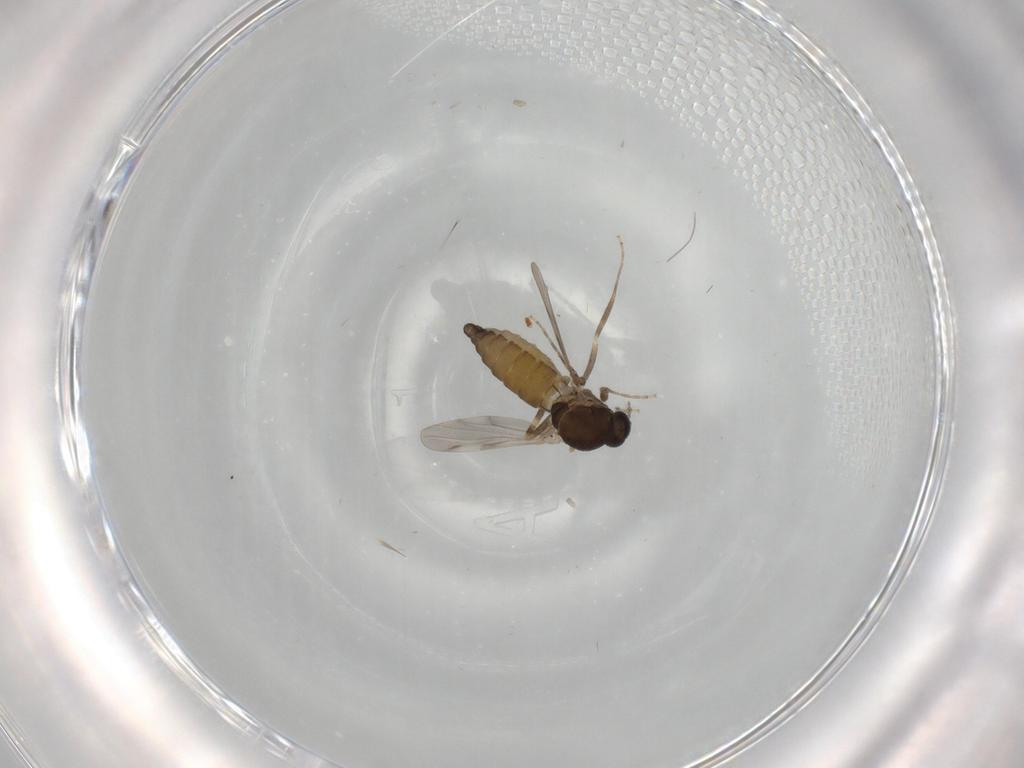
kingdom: Animalia
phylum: Arthropoda
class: Insecta
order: Diptera
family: Ceratopogonidae
